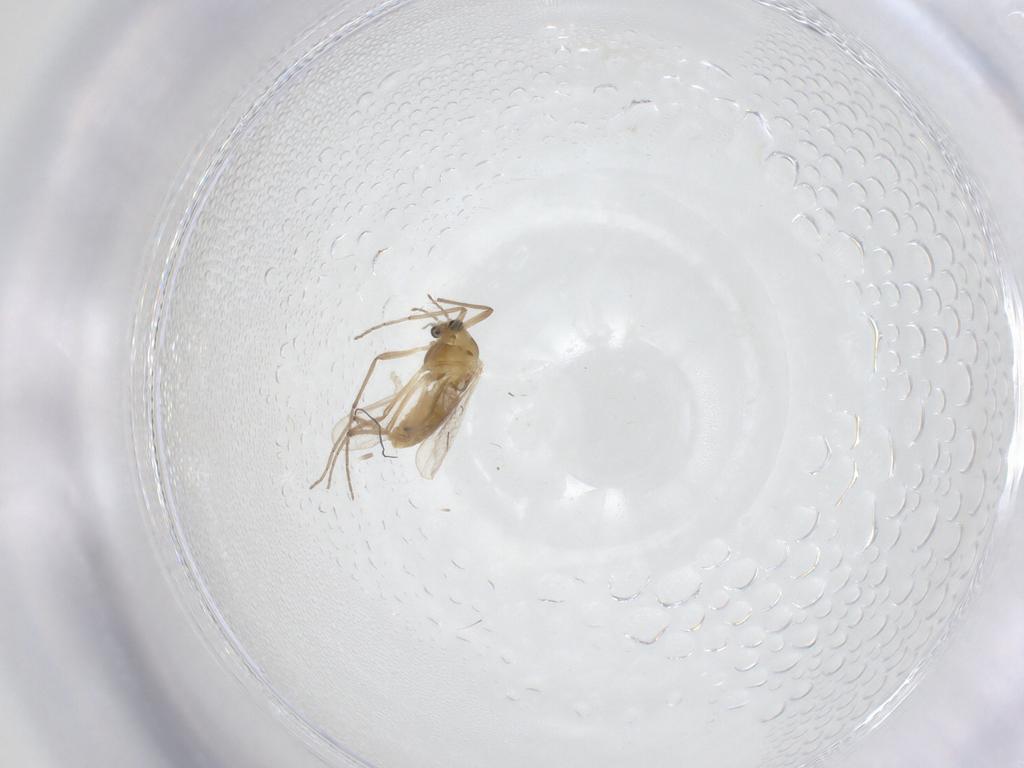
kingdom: Animalia
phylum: Arthropoda
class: Insecta
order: Diptera
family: Chironomidae
